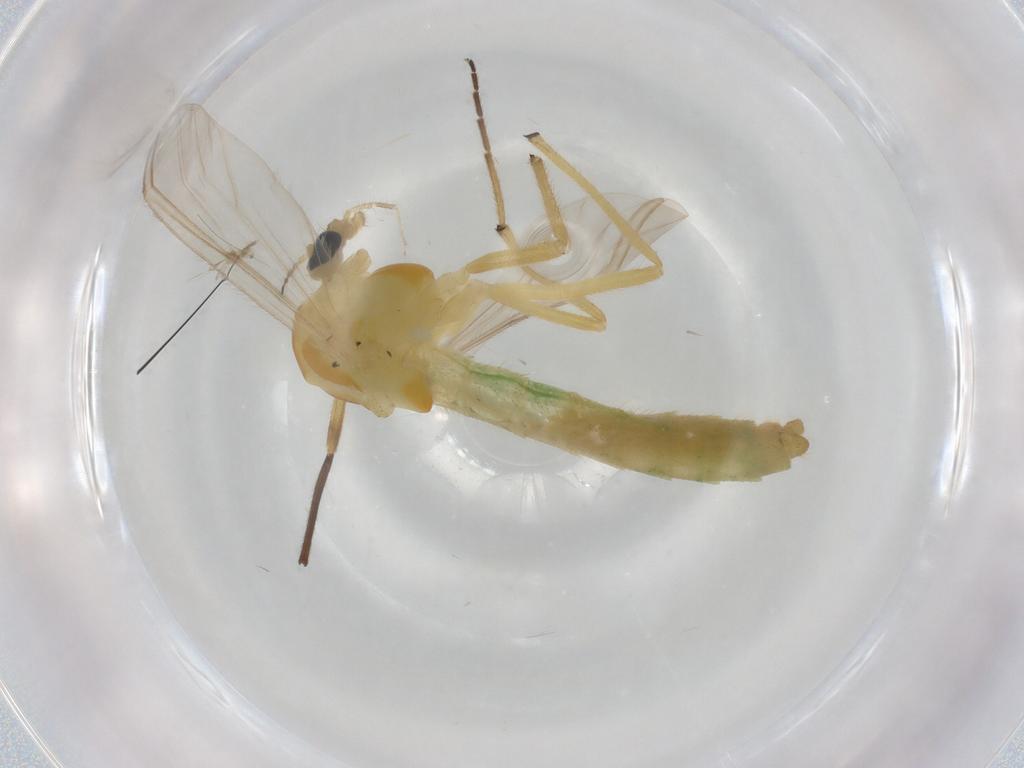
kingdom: Animalia
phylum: Arthropoda
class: Insecta
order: Diptera
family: Chironomidae
